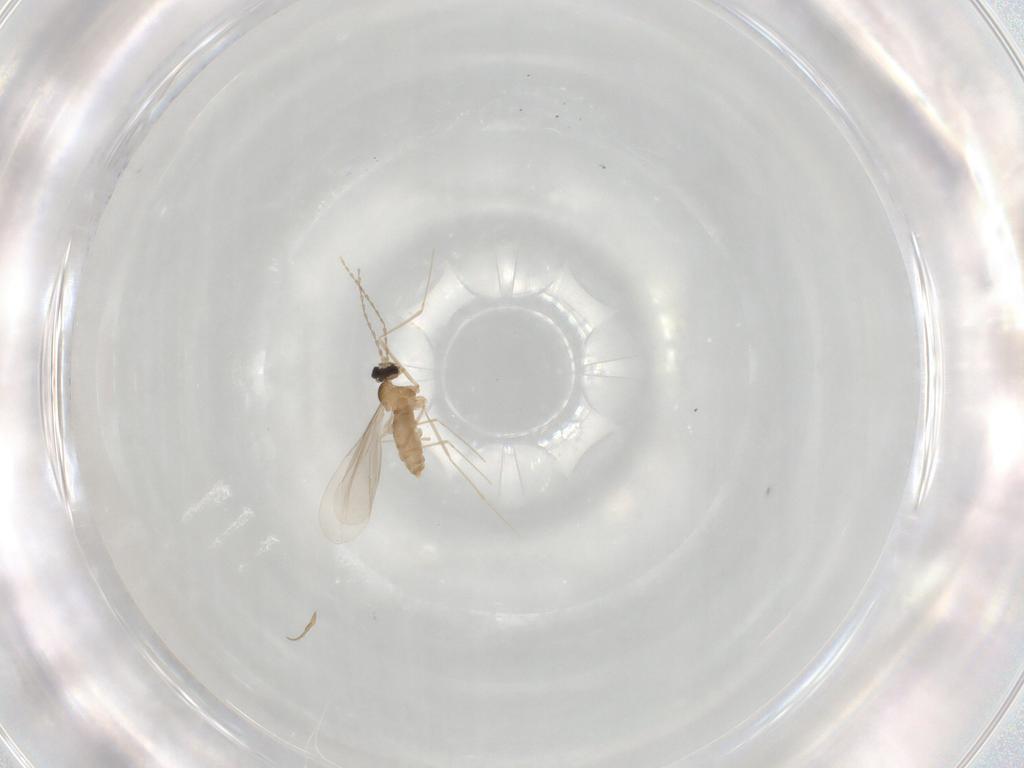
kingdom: Animalia
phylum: Arthropoda
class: Insecta
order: Diptera
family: Cecidomyiidae
